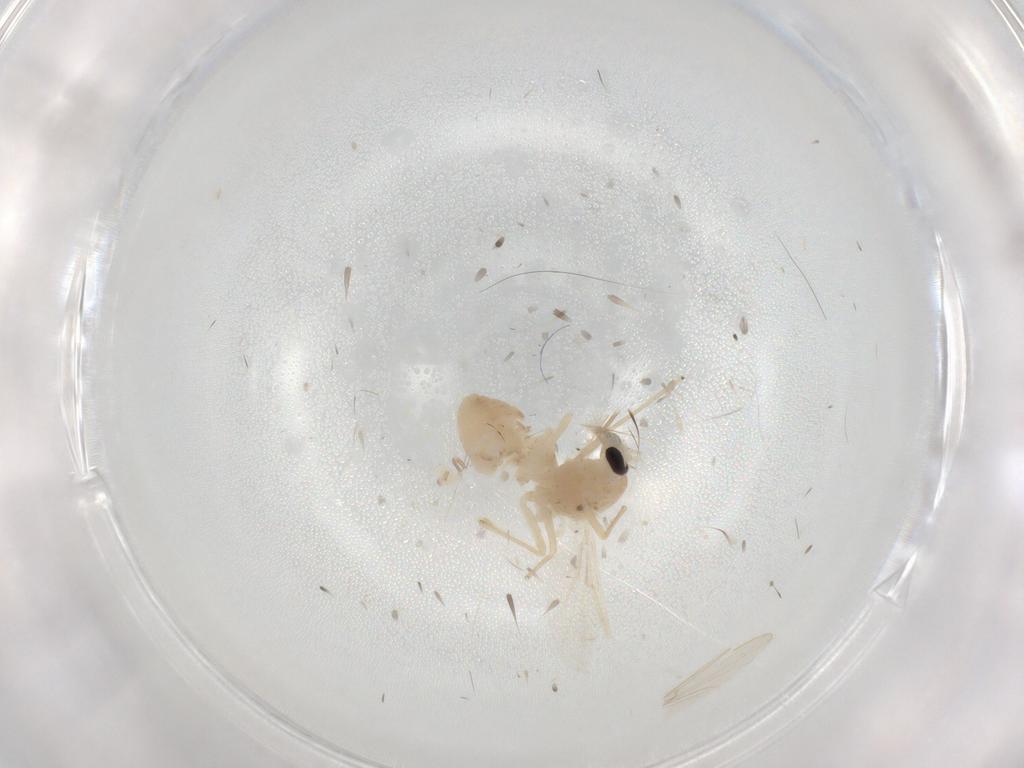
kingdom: Animalia
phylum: Arthropoda
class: Insecta
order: Diptera
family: Chironomidae
